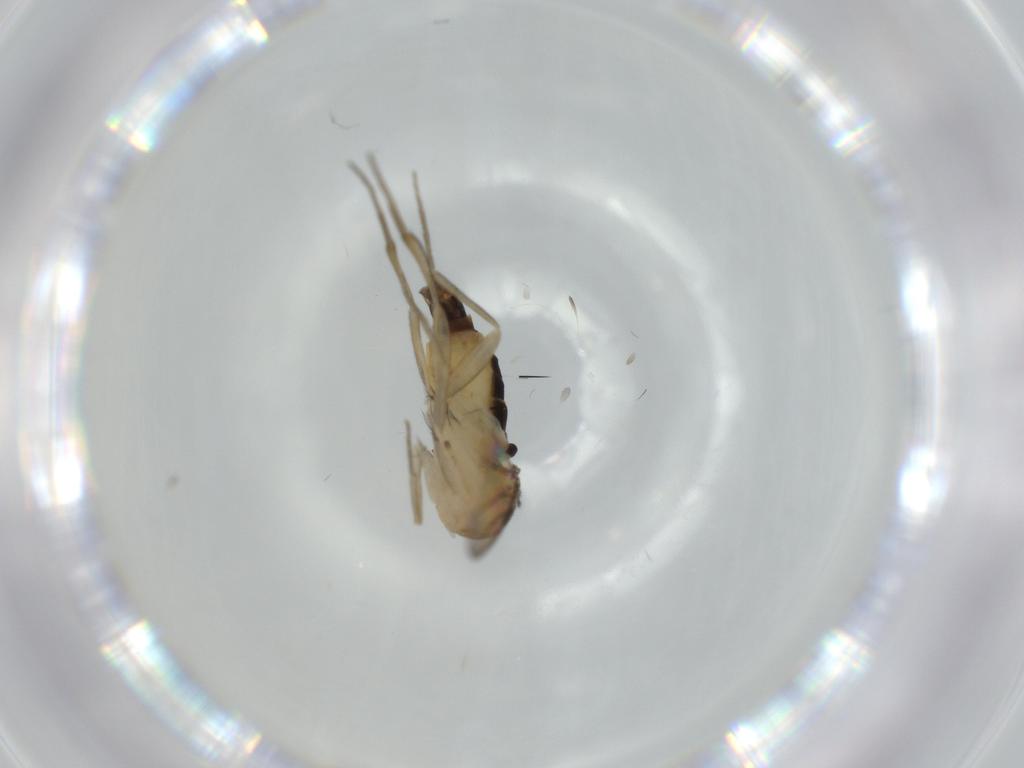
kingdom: Animalia
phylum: Arthropoda
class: Insecta
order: Diptera
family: Phoridae
